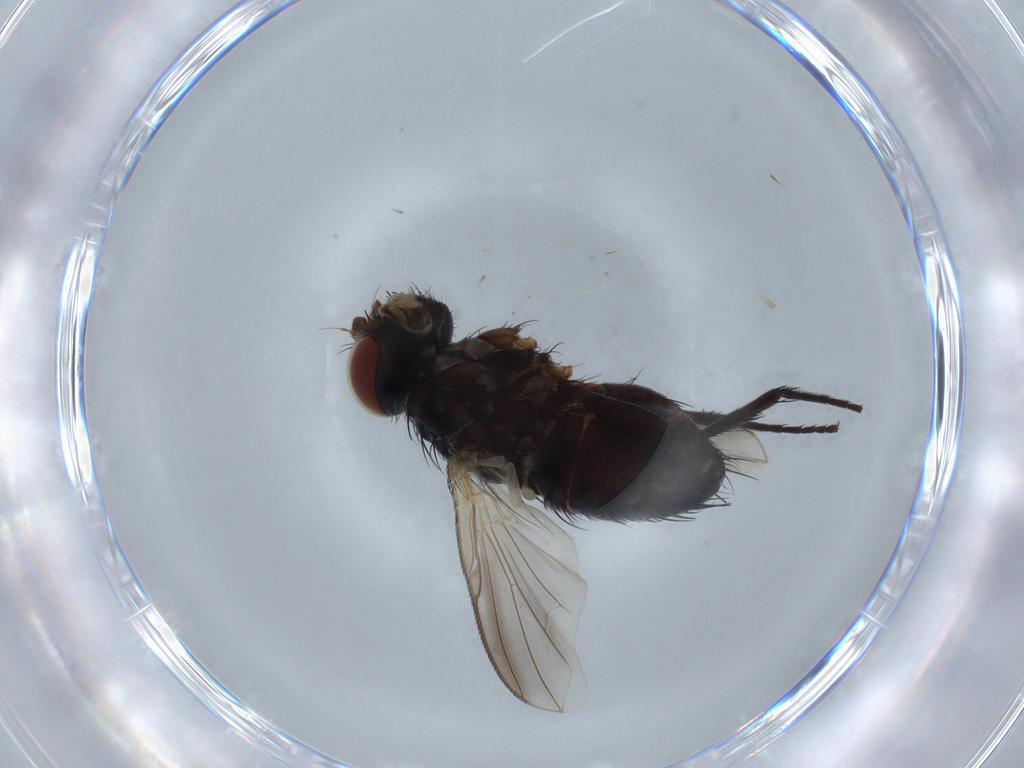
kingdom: Animalia
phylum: Arthropoda
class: Insecta
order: Diptera
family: Tachinidae
